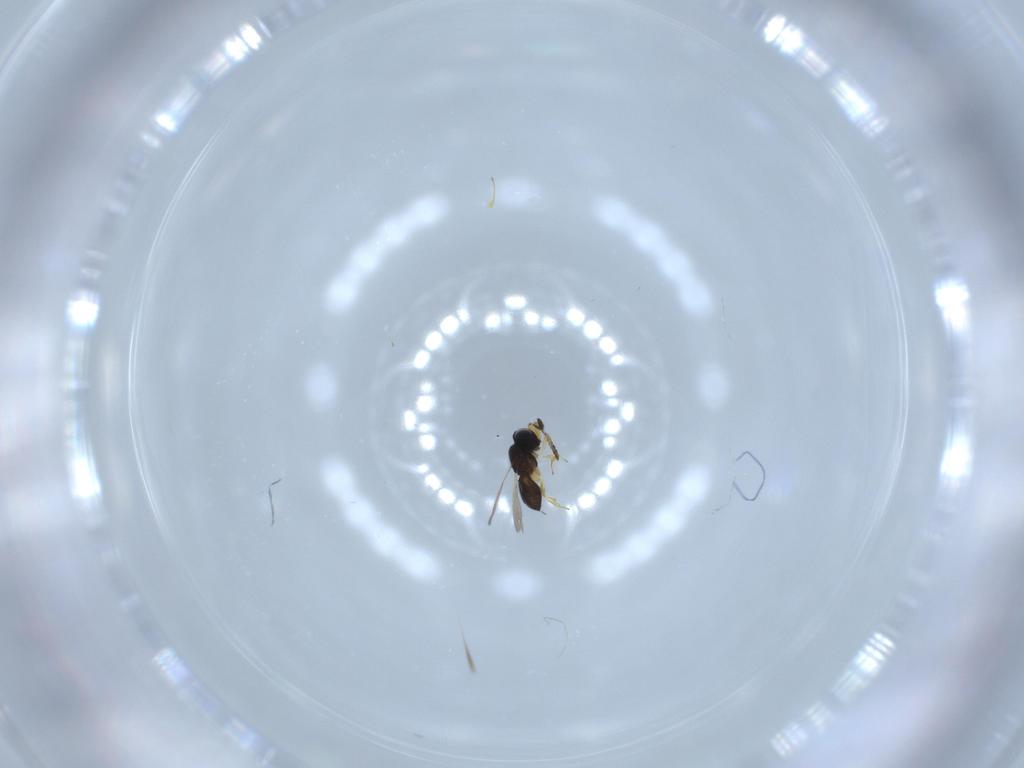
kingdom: Animalia
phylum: Arthropoda
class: Insecta
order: Hymenoptera
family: Scelionidae
